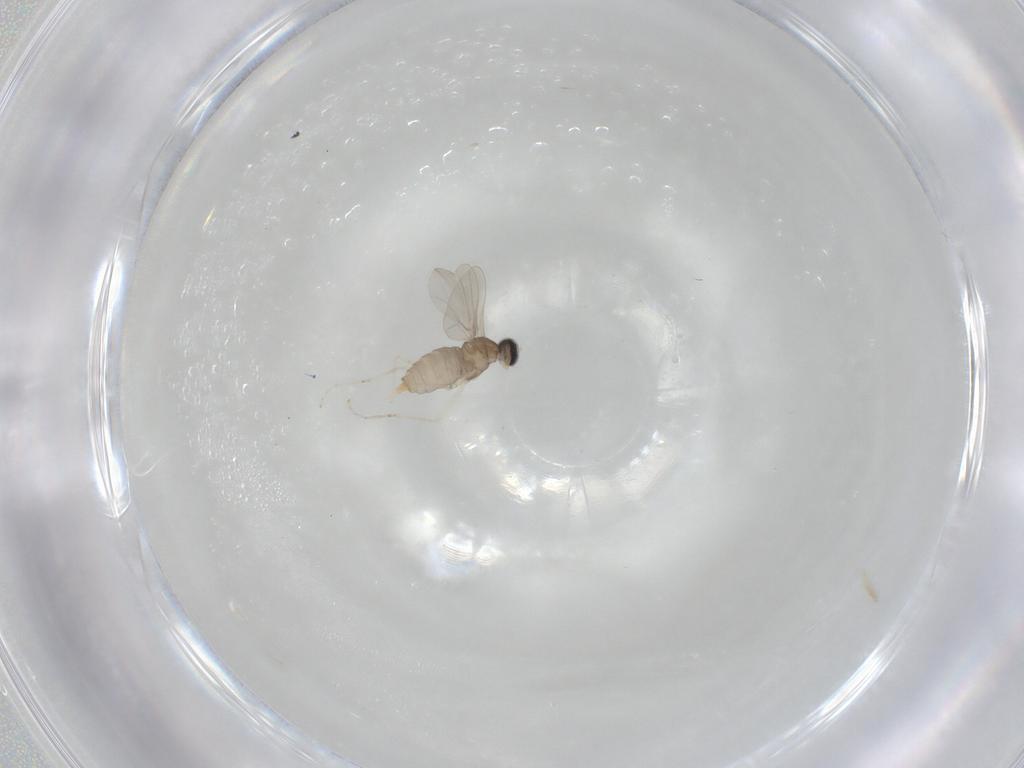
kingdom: Animalia
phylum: Arthropoda
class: Insecta
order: Diptera
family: Cecidomyiidae
